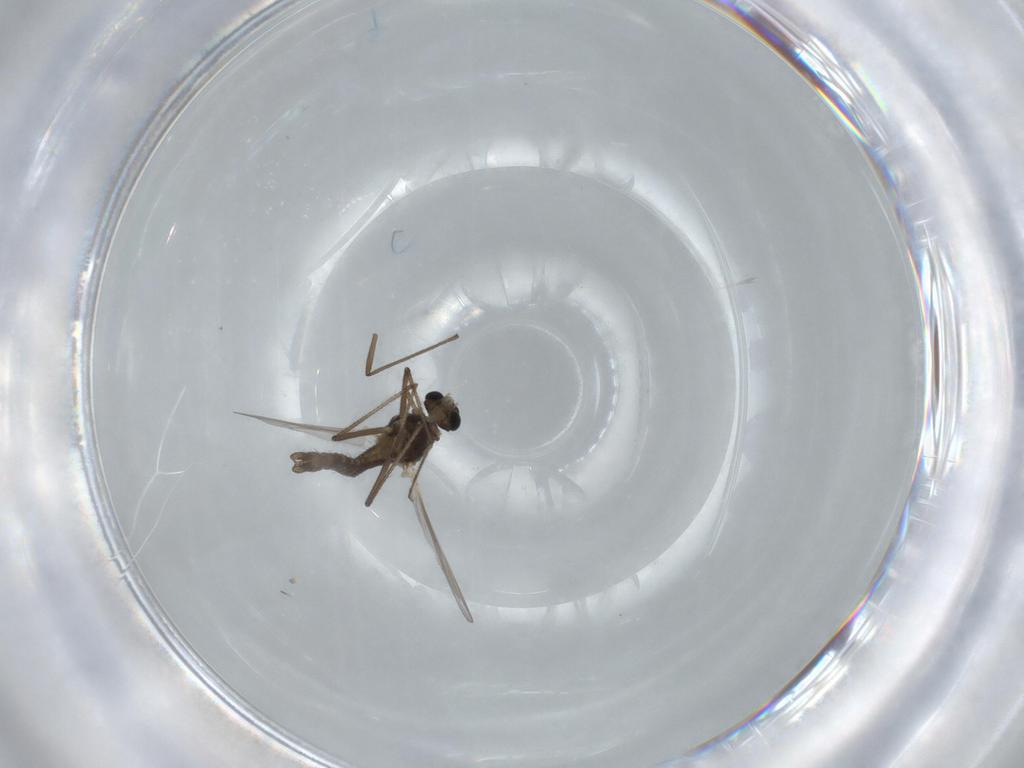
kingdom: Animalia
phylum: Arthropoda
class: Insecta
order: Diptera
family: Chironomidae
